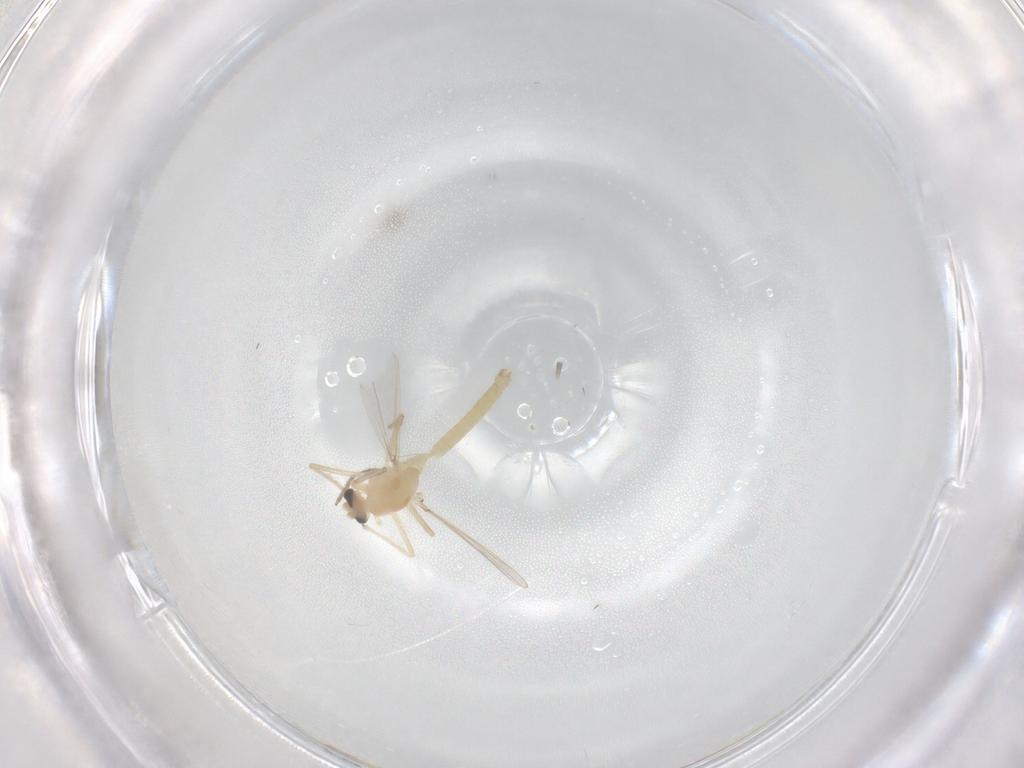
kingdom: Animalia
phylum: Arthropoda
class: Insecta
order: Diptera
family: Chironomidae
